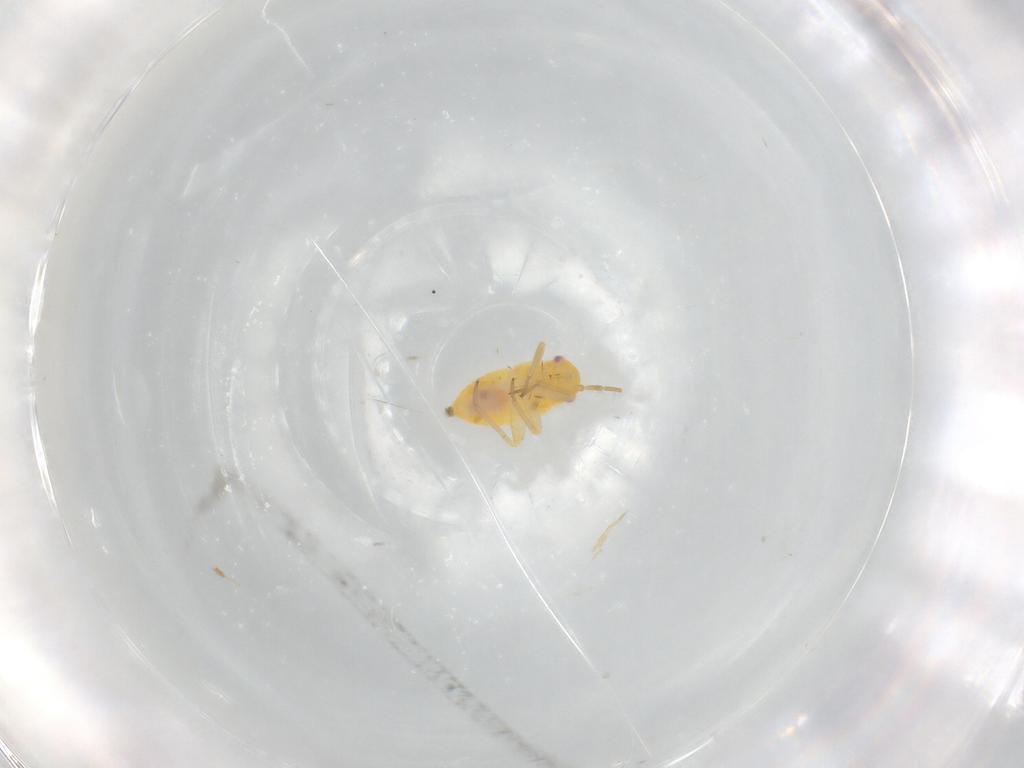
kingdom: Animalia
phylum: Arthropoda
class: Insecta
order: Hemiptera
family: Miridae
